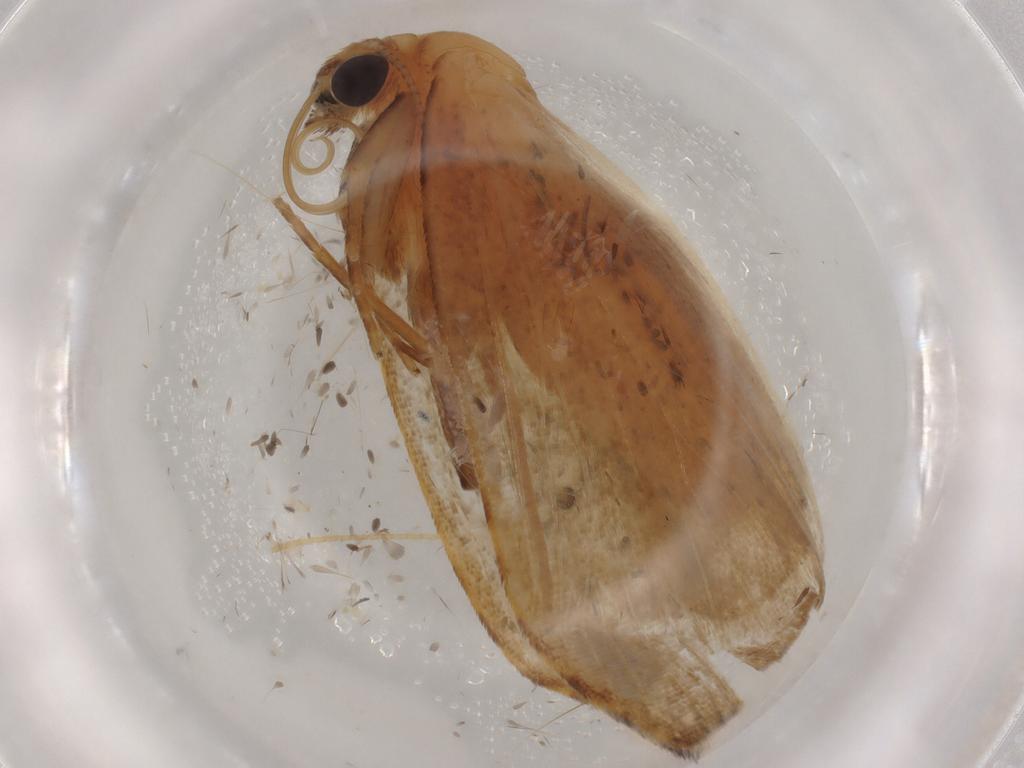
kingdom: Animalia
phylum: Arthropoda
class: Insecta
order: Lepidoptera
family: Erebidae
